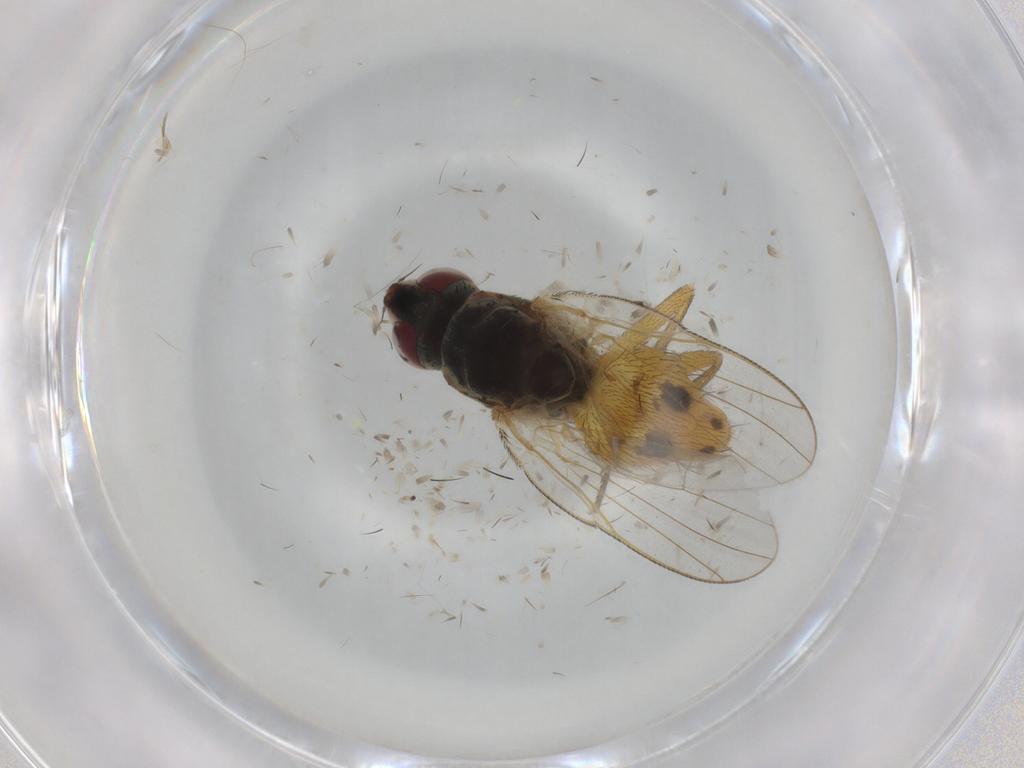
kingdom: Animalia
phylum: Arthropoda
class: Insecta
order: Diptera
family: Muscidae
